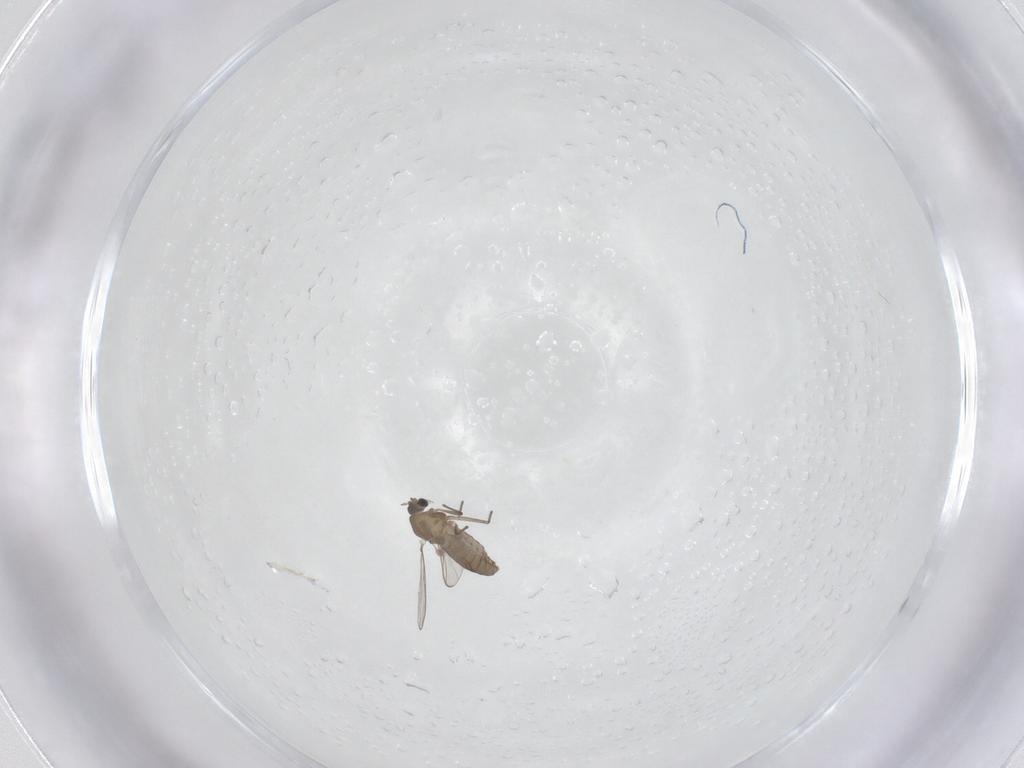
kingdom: Animalia
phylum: Arthropoda
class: Insecta
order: Diptera
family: Chironomidae
